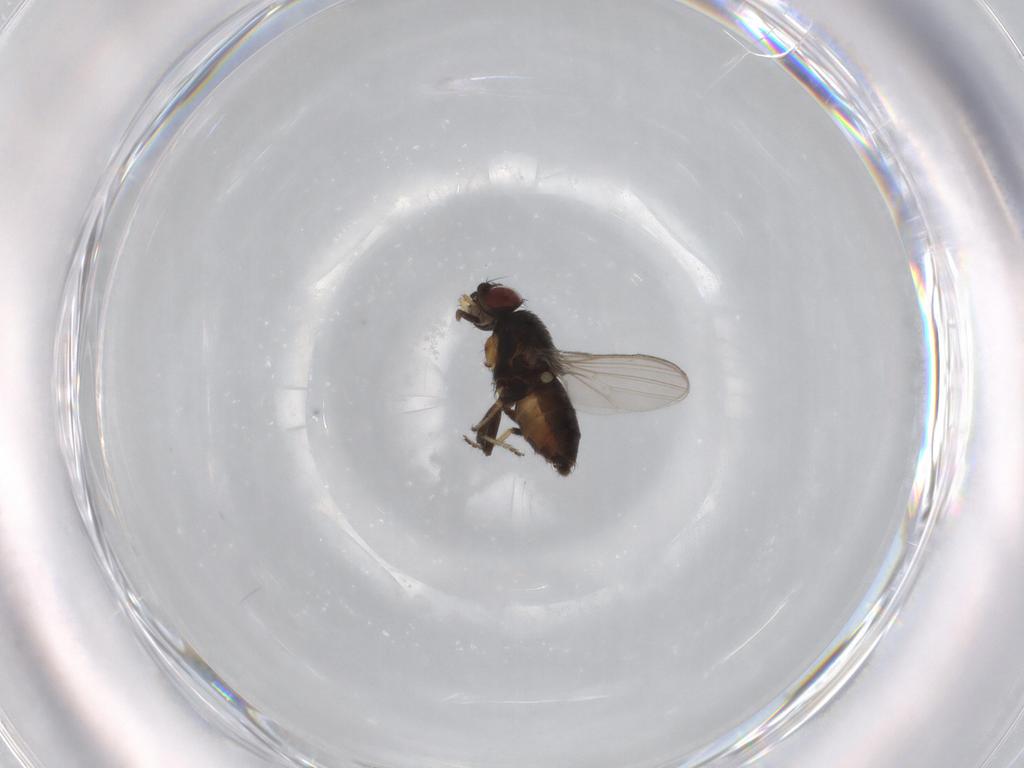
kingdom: Animalia
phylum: Arthropoda
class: Insecta
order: Diptera
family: Milichiidae
